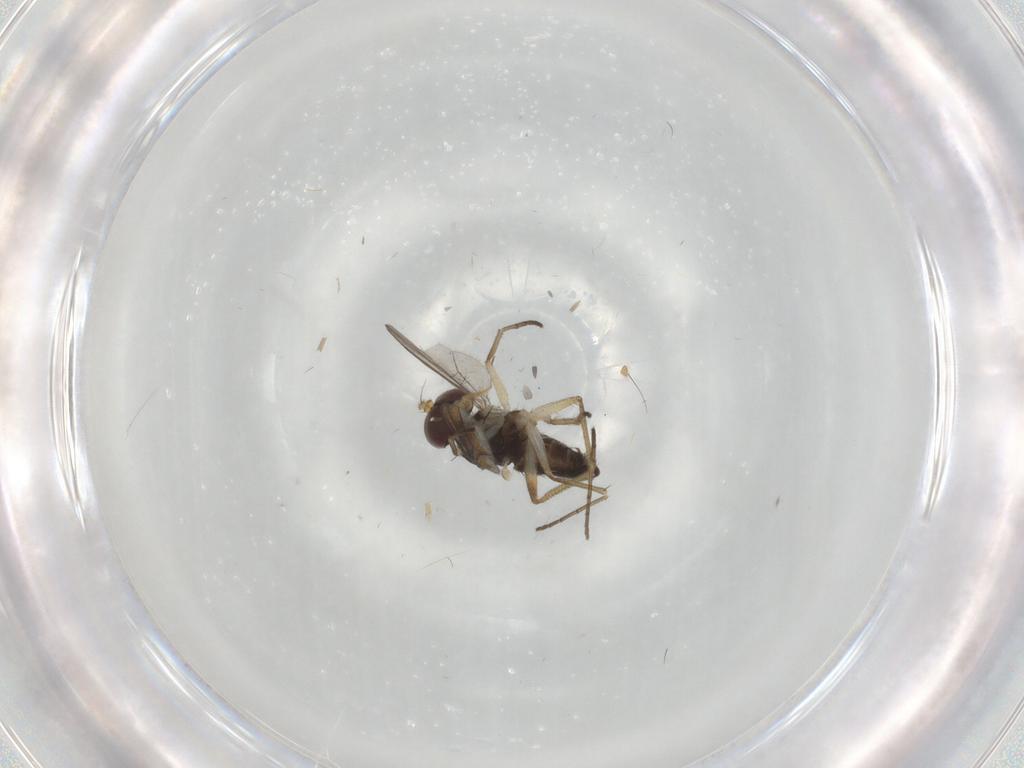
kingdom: Animalia
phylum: Arthropoda
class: Insecta
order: Diptera
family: Dolichopodidae
